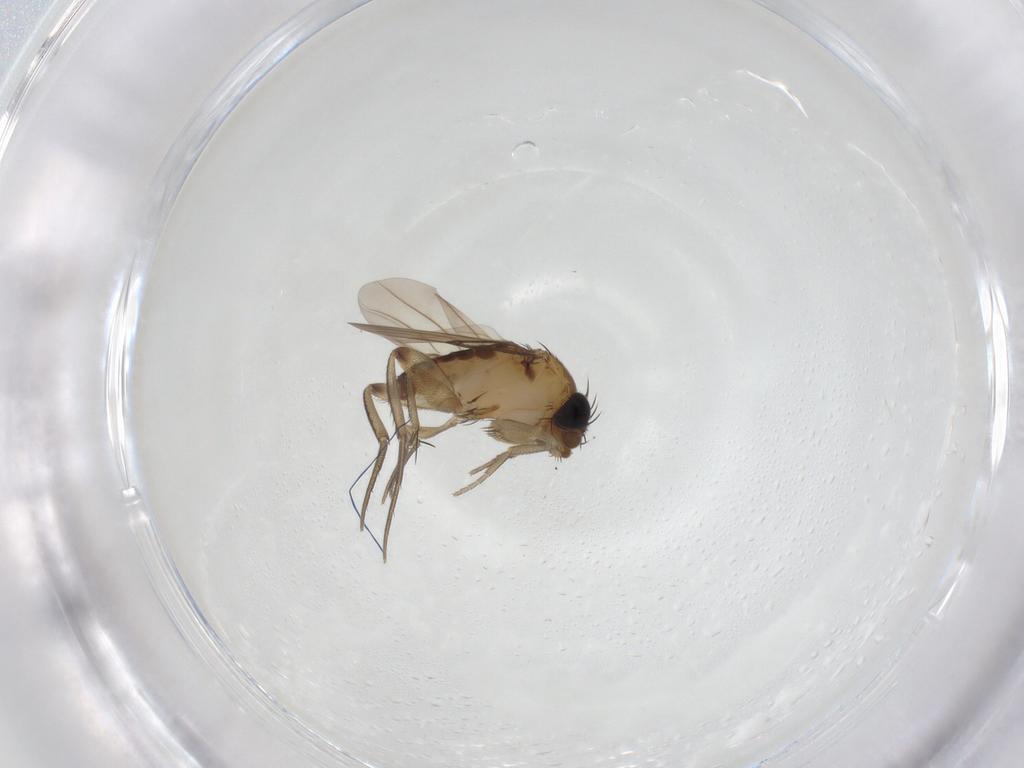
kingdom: Animalia
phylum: Arthropoda
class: Insecta
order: Diptera
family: Phoridae
